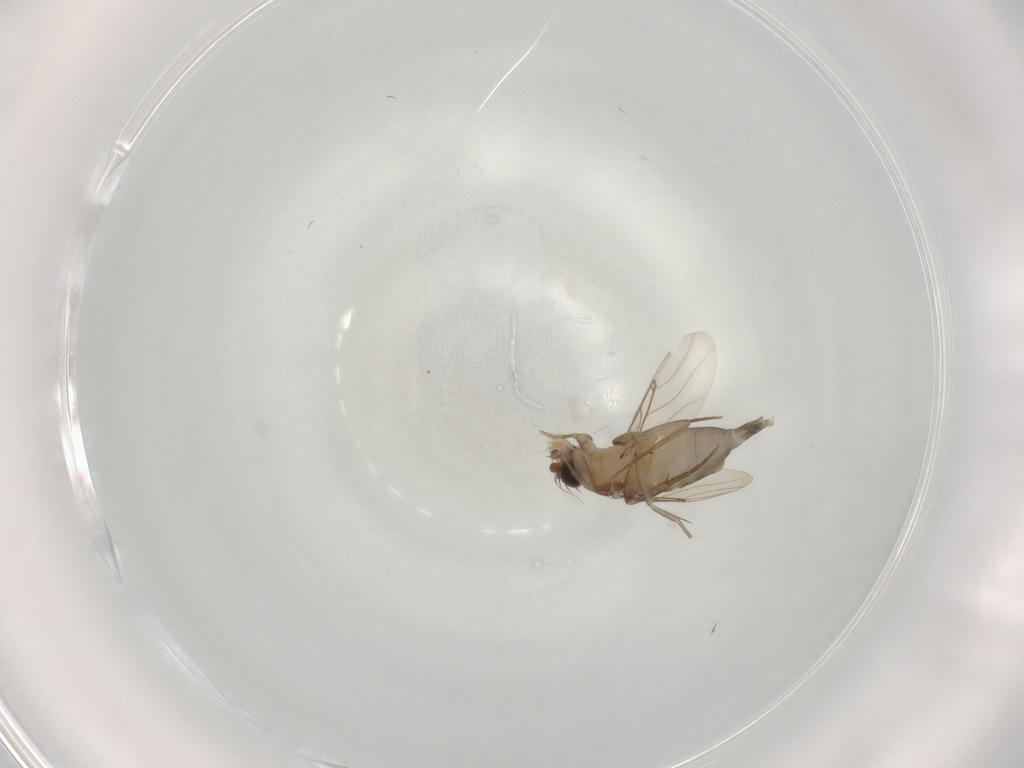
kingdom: Animalia
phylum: Arthropoda
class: Insecta
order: Diptera
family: Phoridae
